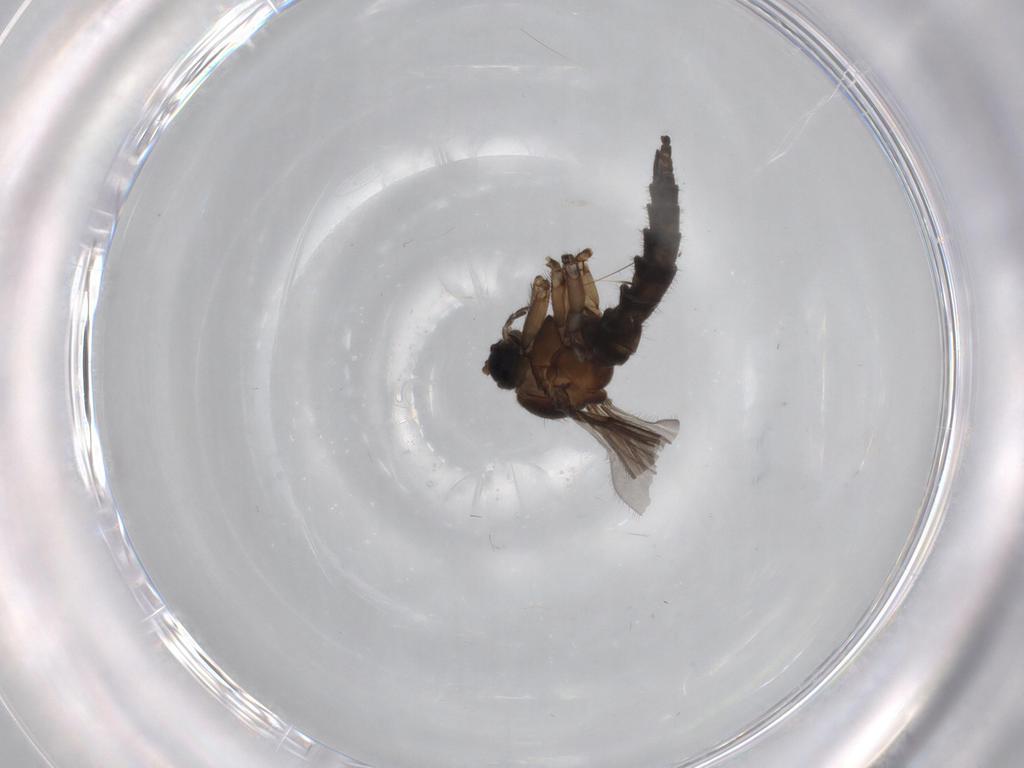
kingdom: Animalia
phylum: Arthropoda
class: Insecta
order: Diptera
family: Sciaridae
